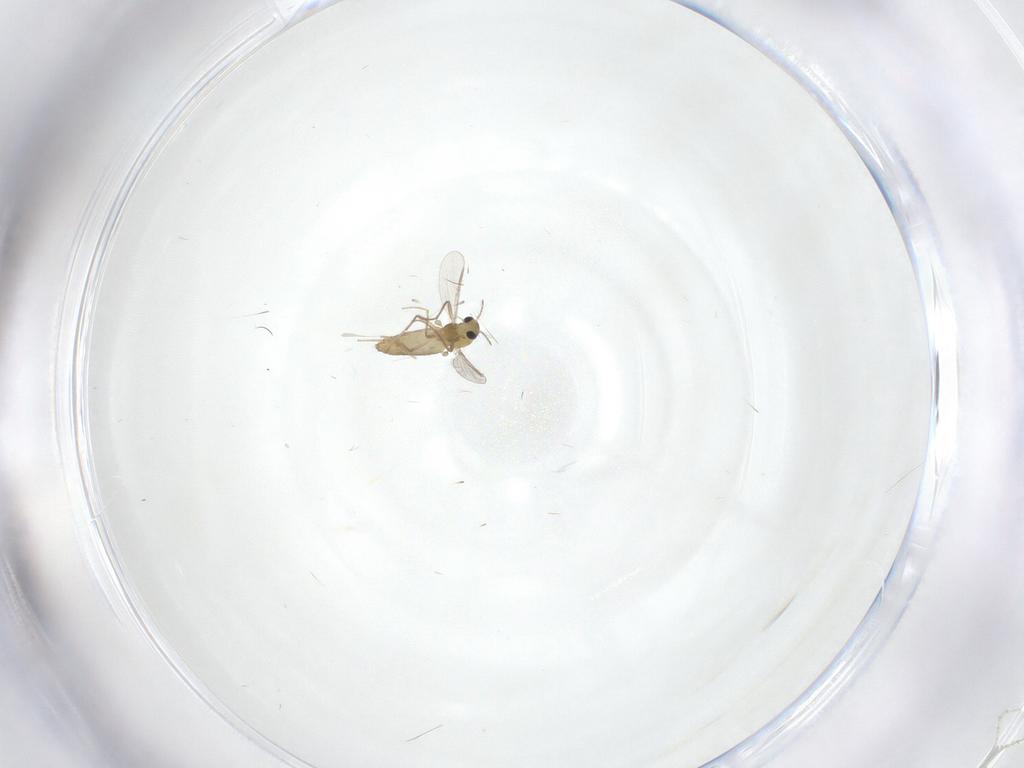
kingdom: Animalia
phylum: Arthropoda
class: Insecta
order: Diptera
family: Chironomidae
